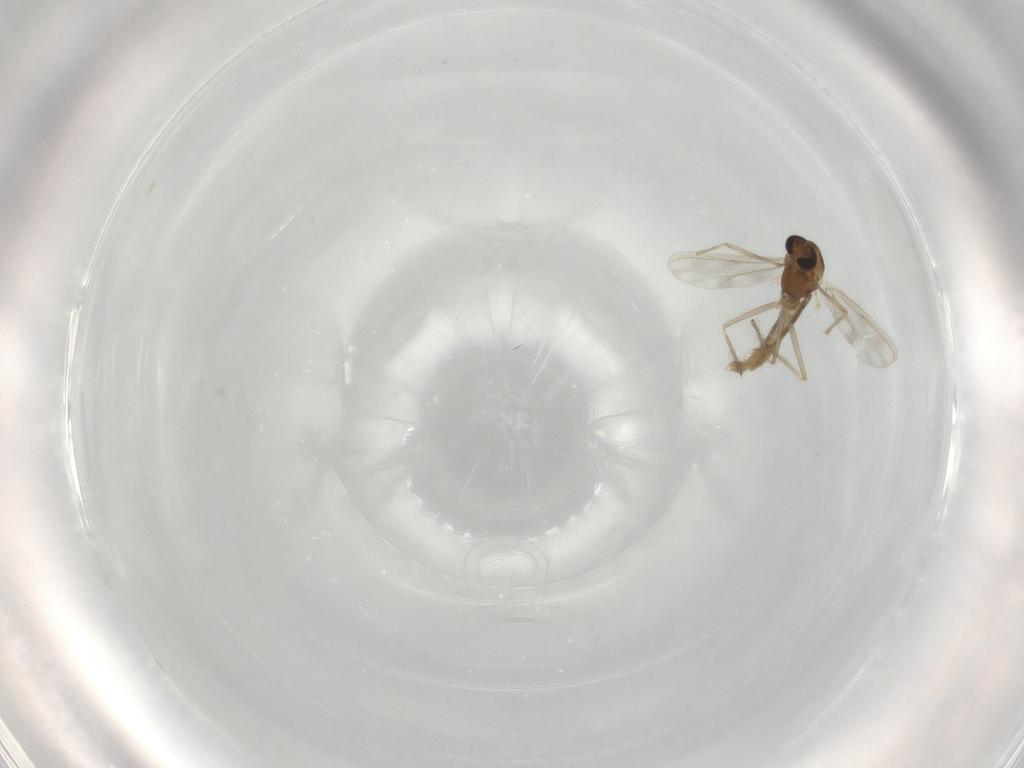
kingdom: Animalia
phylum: Arthropoda
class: Insecta
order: Diptera
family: Chironomidae
